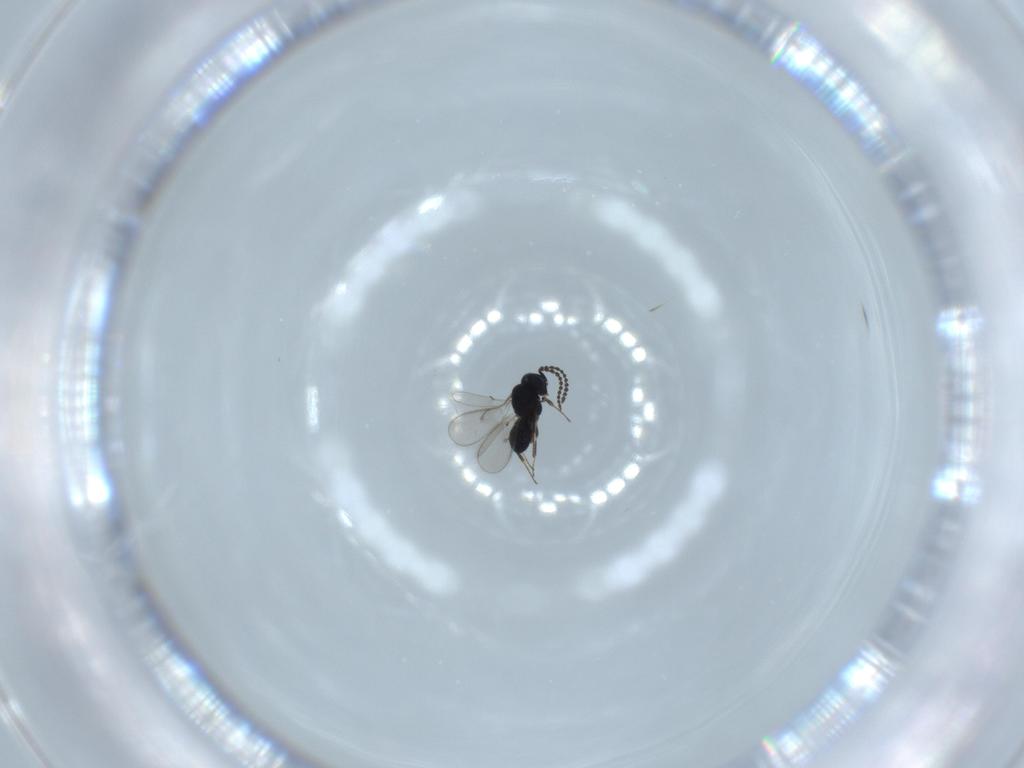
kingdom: Animalia
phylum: Arthropoda
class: Insecta
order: Hymenoptera
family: Scelionidae
